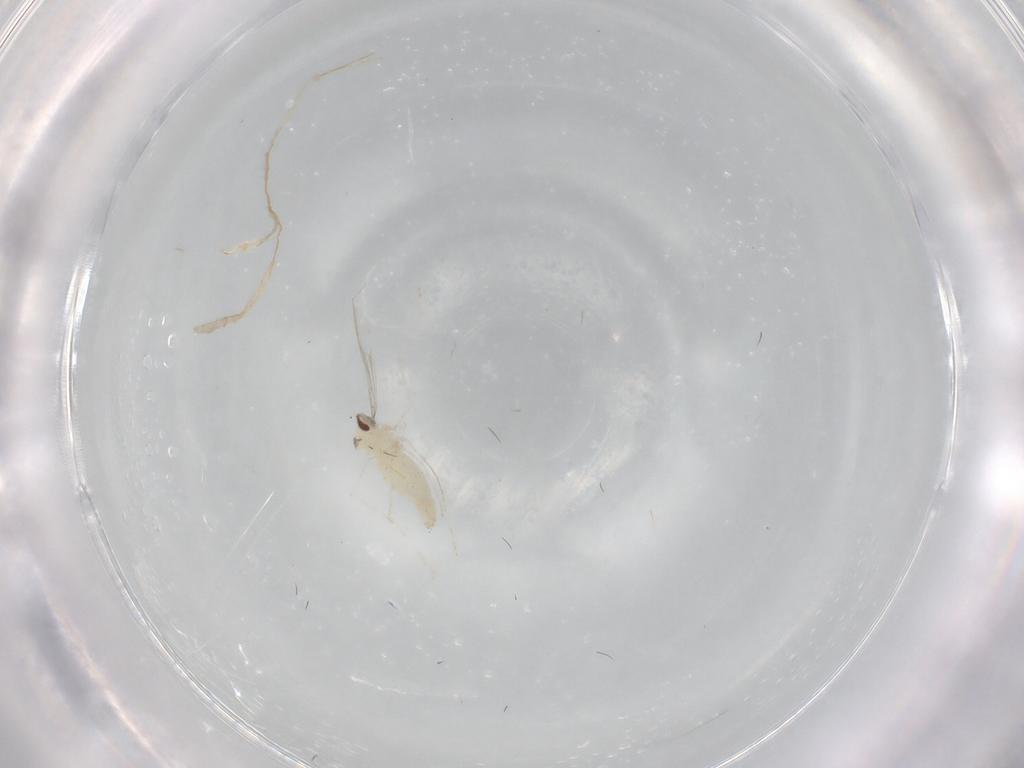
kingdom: Animalia
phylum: Arthropoda
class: Insecta
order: Diptera
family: Cecidomyiidae
